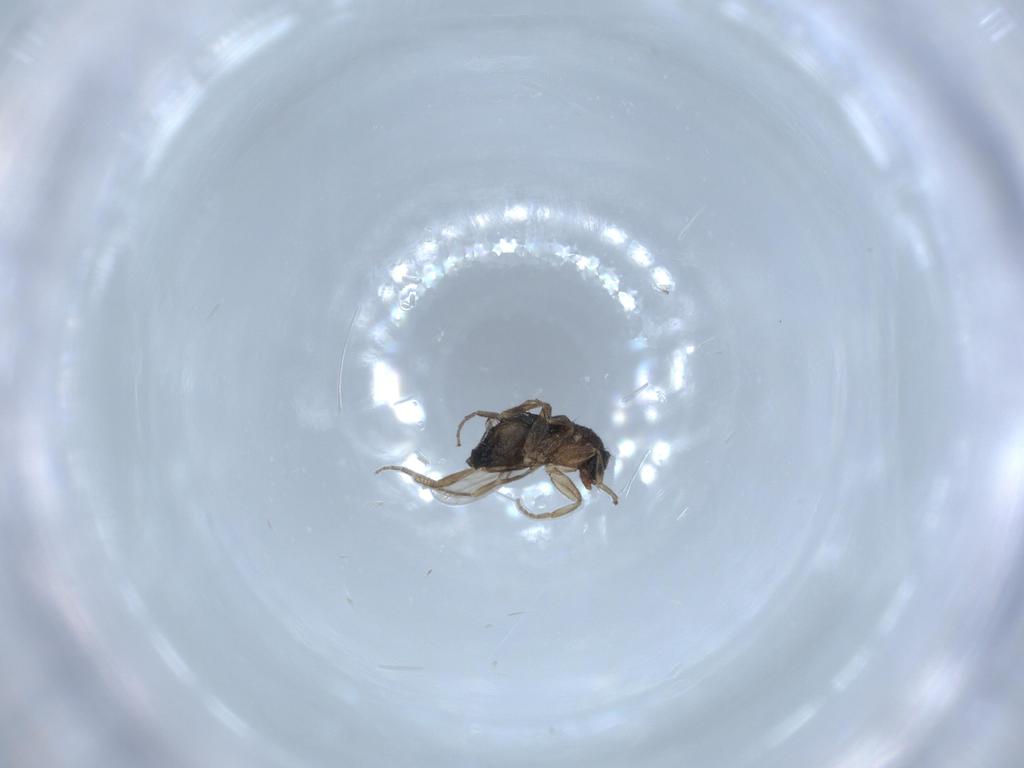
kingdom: Animalia
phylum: Arthropoda
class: Insecta
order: Diptera
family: Phoridae
